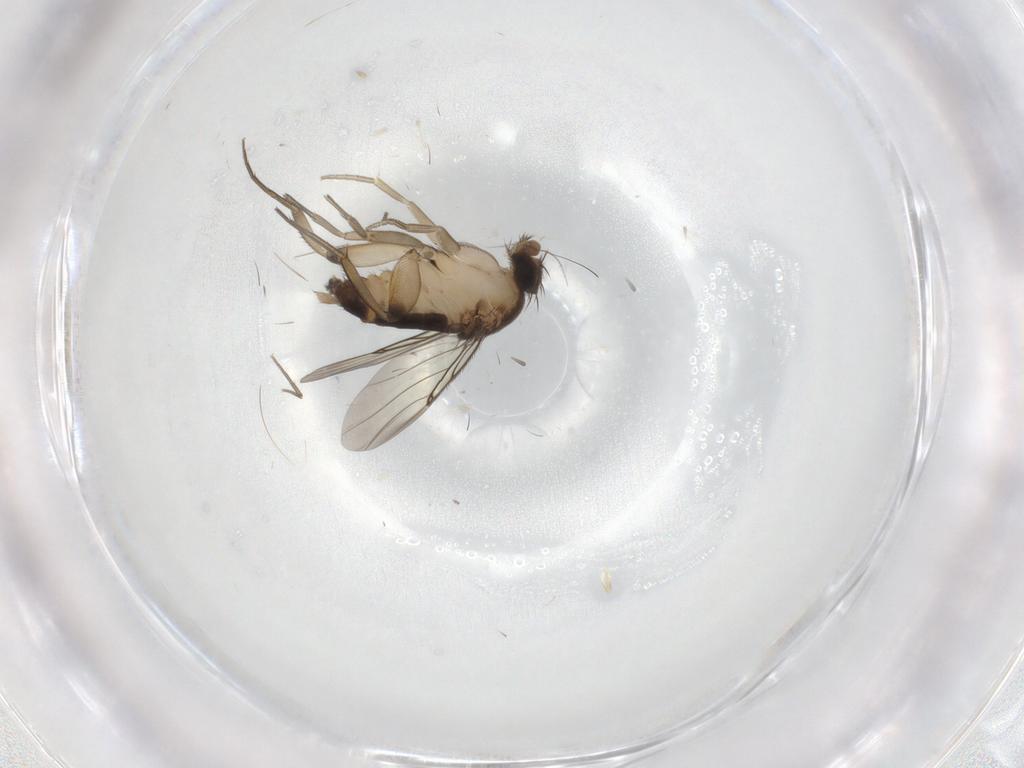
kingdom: Animalia
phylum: Arthropoda
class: Insecta
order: Diptera
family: Phoridae
